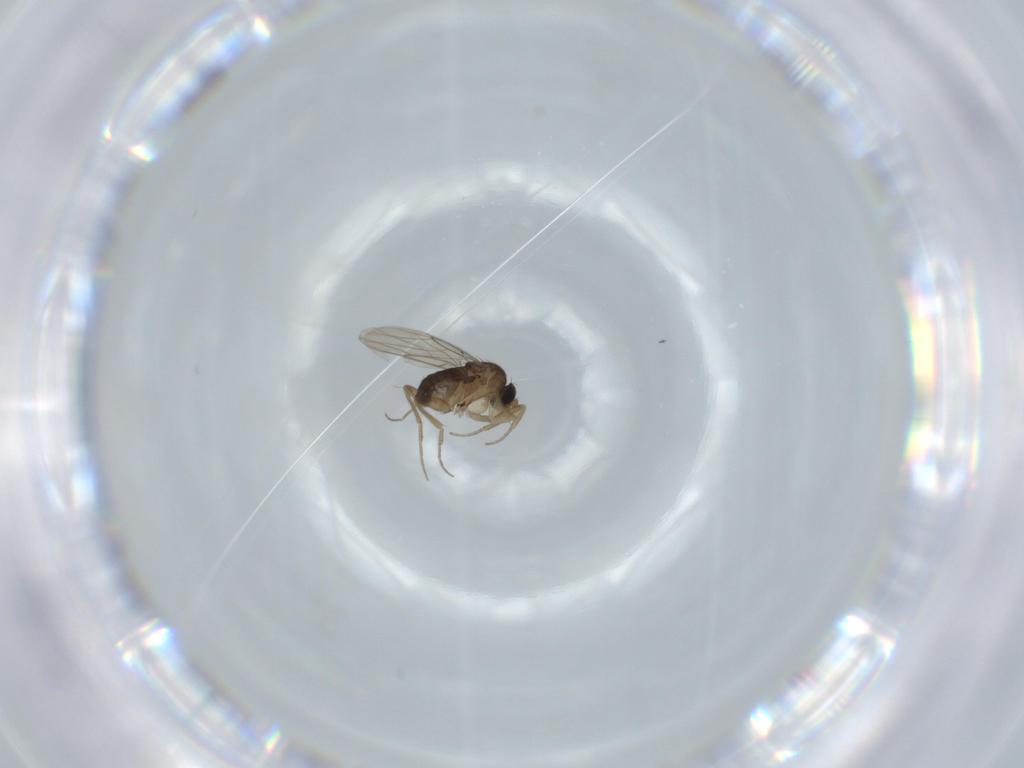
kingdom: Animalia
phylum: Arthropoda
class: Insecta
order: Diptera
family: Phoridae
